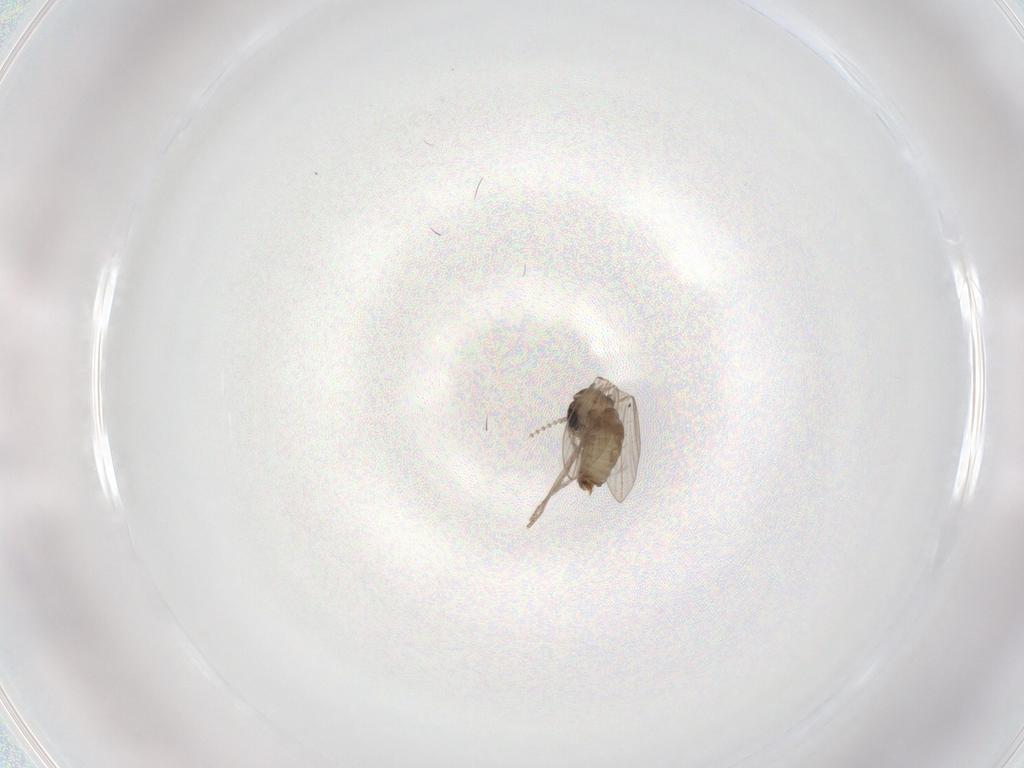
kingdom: Animalia
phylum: Arthropoda
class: Insecta
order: Diptera
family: Psychodidae
